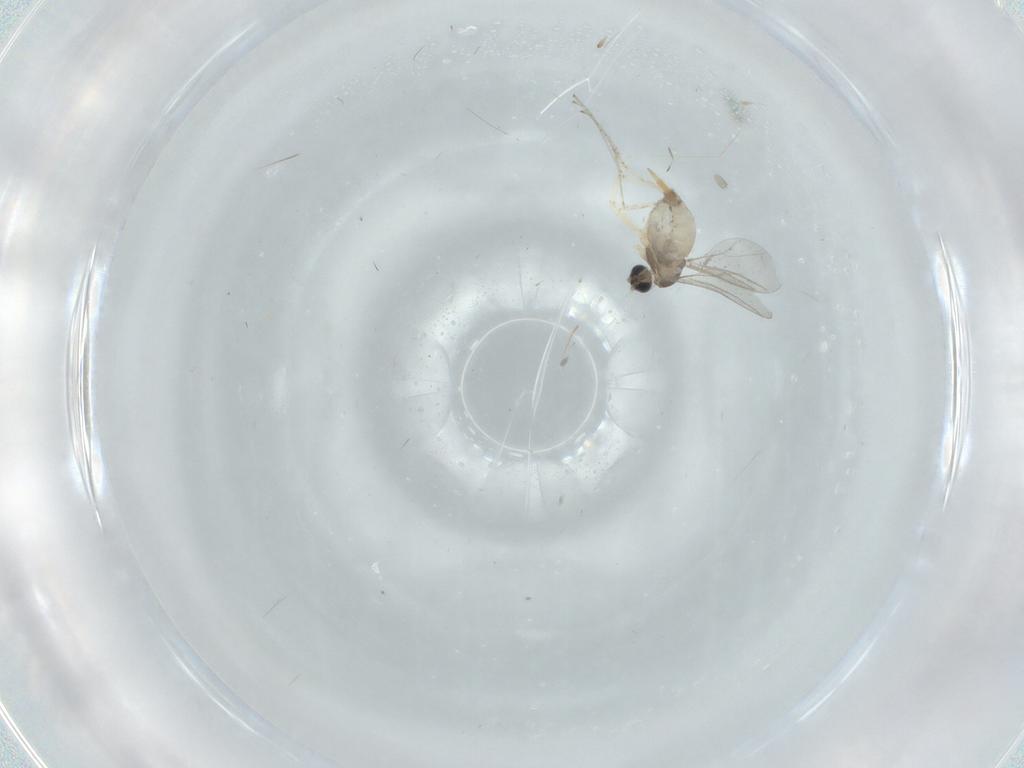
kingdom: Animalia
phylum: Arthropoda
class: Insecta
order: Diptera
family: Cecidomyiidae
